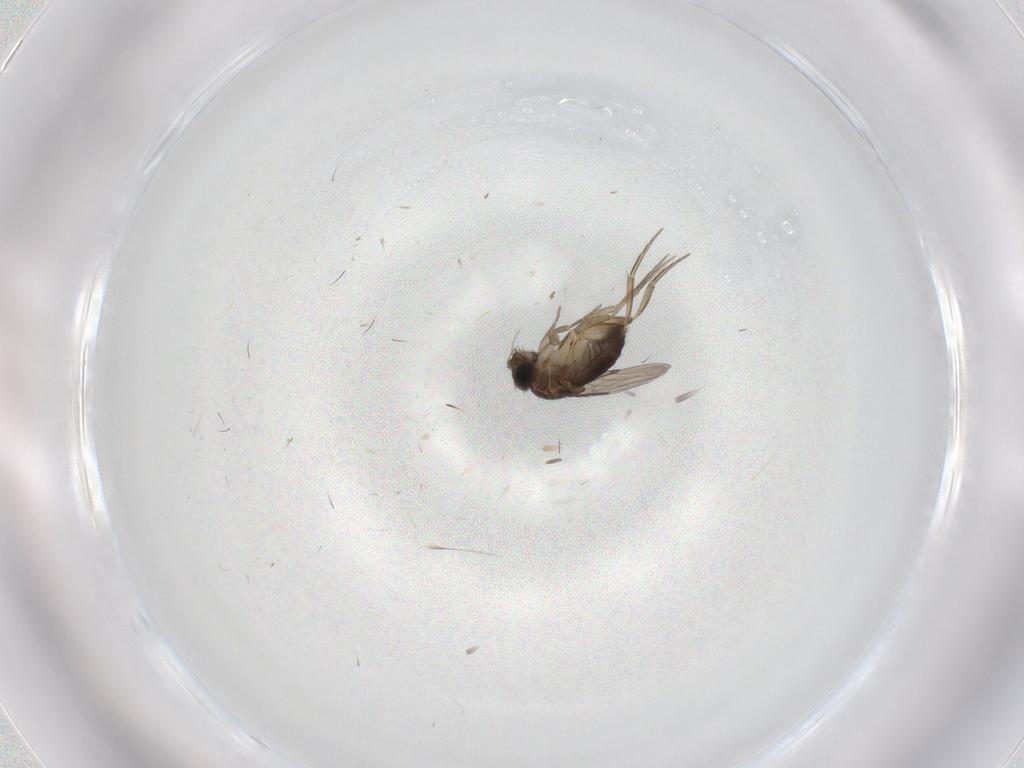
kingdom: Animalia
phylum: Arthropoda
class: Insecta
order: Diptera
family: Phoridae
